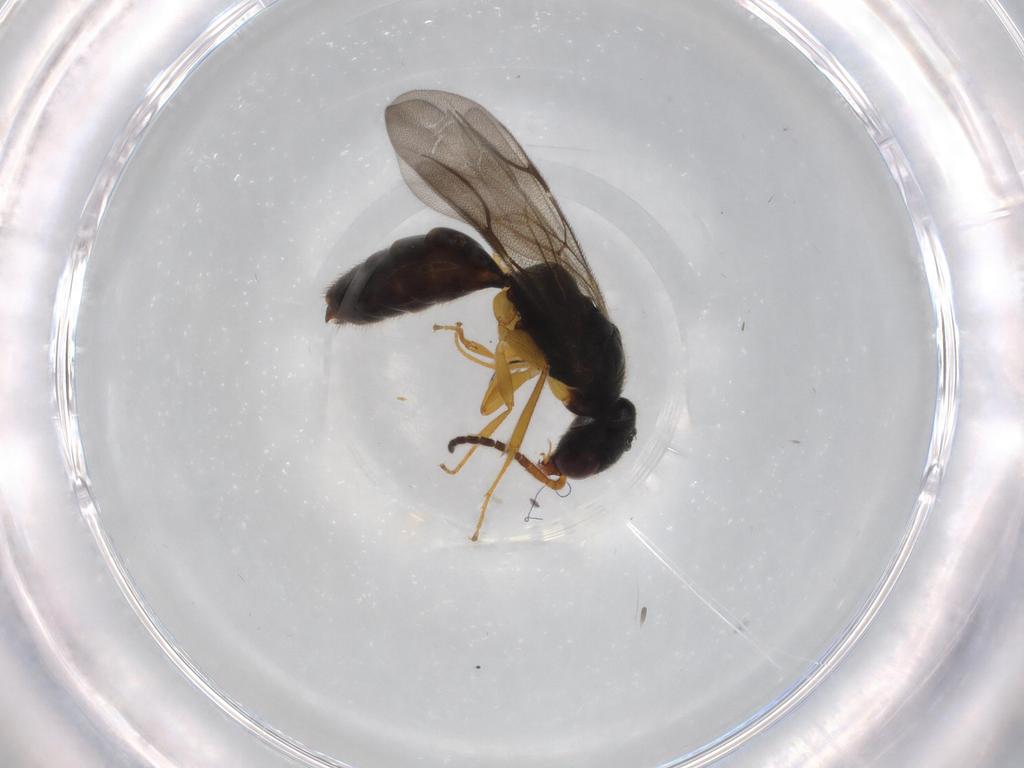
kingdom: Animalia
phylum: Arthropoda
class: Insecta
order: Hymenoptera
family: Bethylidae
